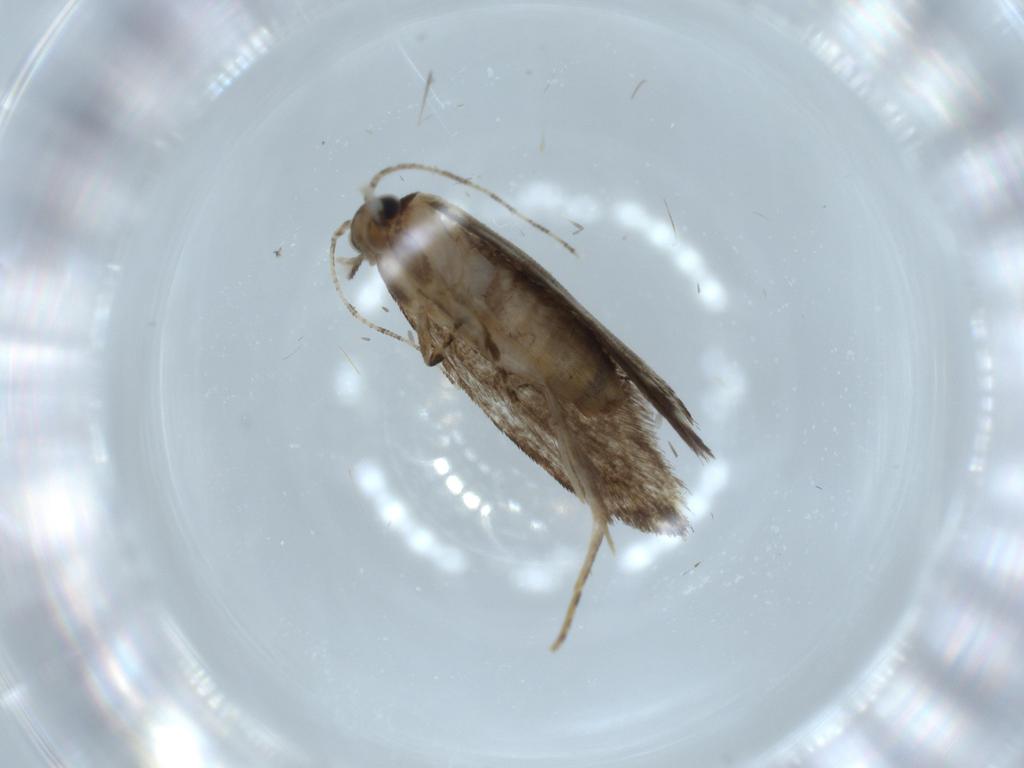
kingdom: Animalia
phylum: Arthropoda
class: Insecta
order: Lepidoptera
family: Tineidae
